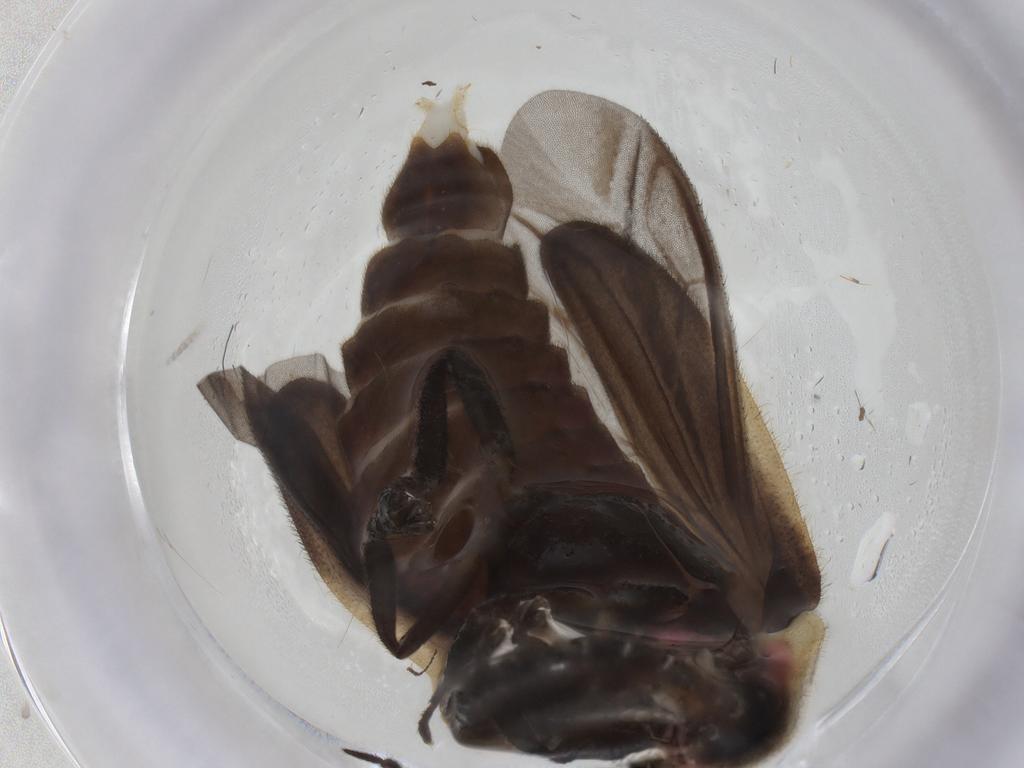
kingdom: Animalia
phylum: Arthropoda
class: Insecta
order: Coleoptera
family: Lampyridae
